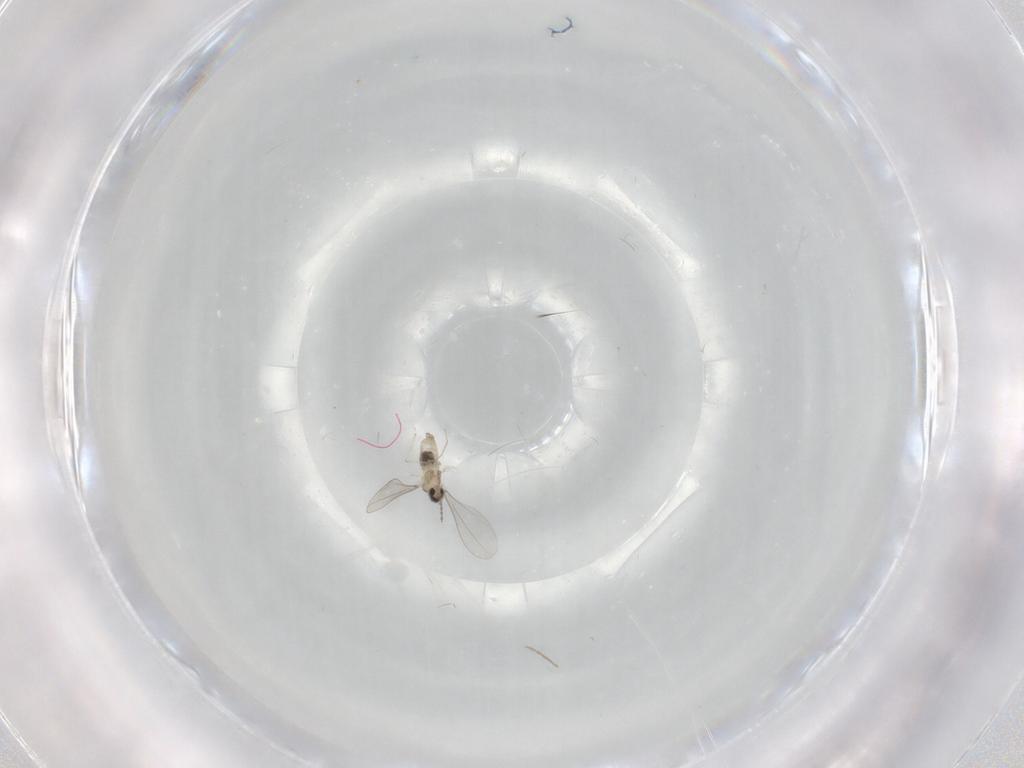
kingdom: Animalia
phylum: Arthropoda
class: Insecta
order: Diptera
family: Cecidomyiidae
